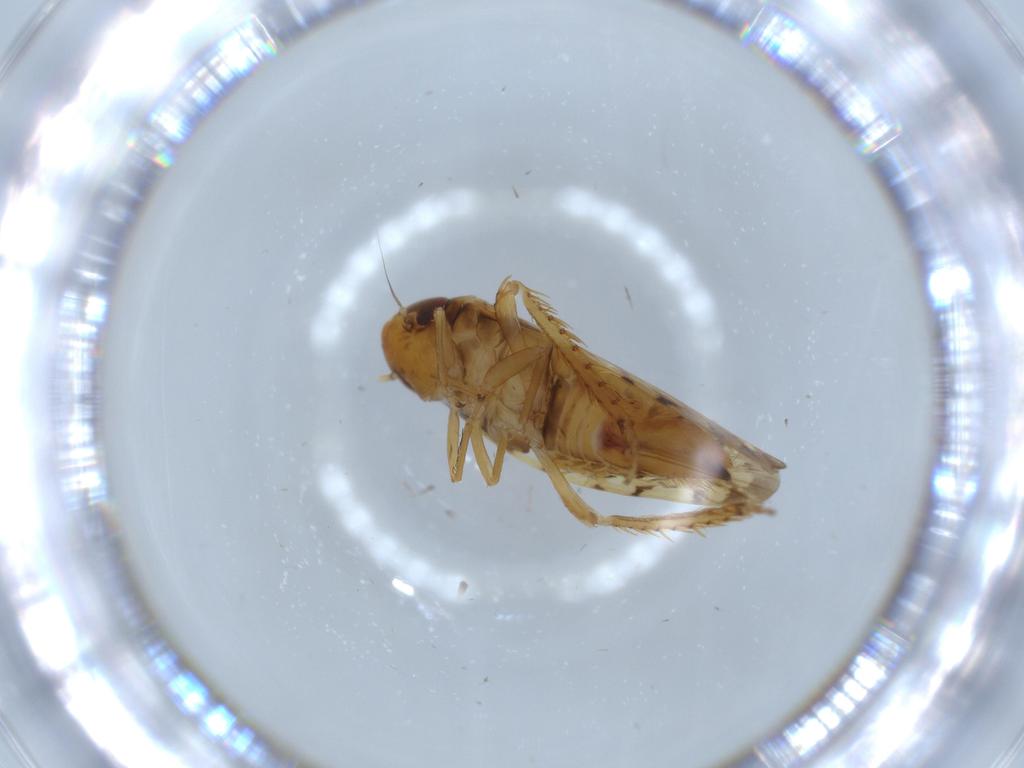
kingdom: Animalia
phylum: Arthropoda
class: Insecta
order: Hemiptera
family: Cicadellidae
